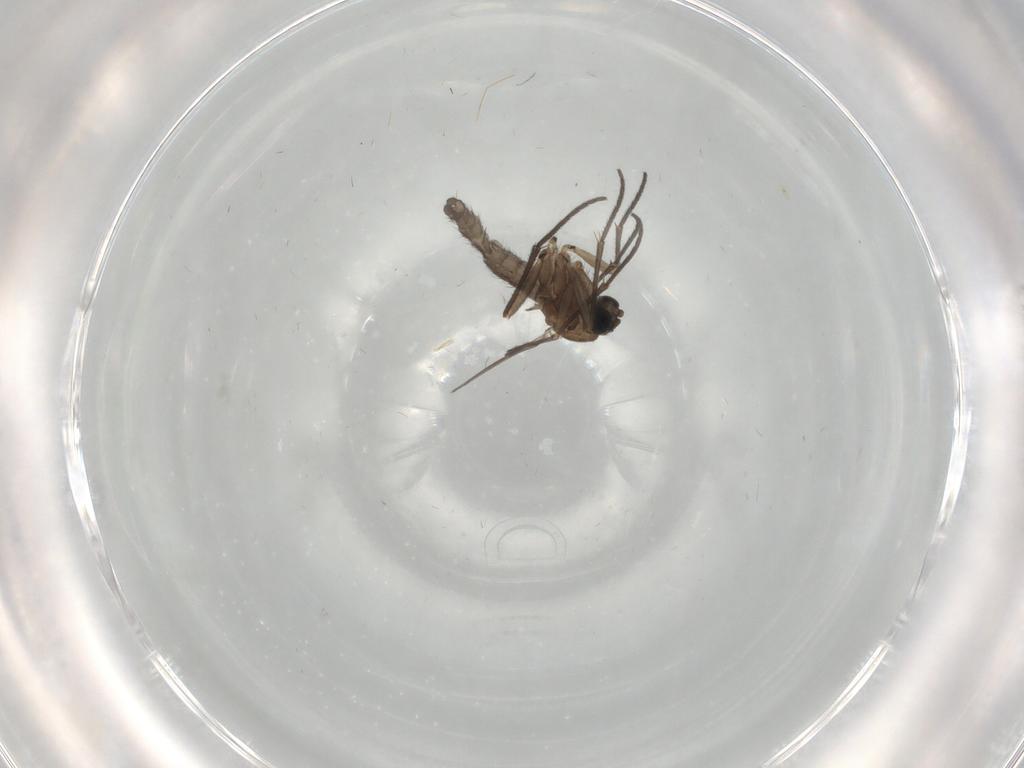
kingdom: Animalia
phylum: Arthropoda
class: Insecta
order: Diptera
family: Sciaridae
